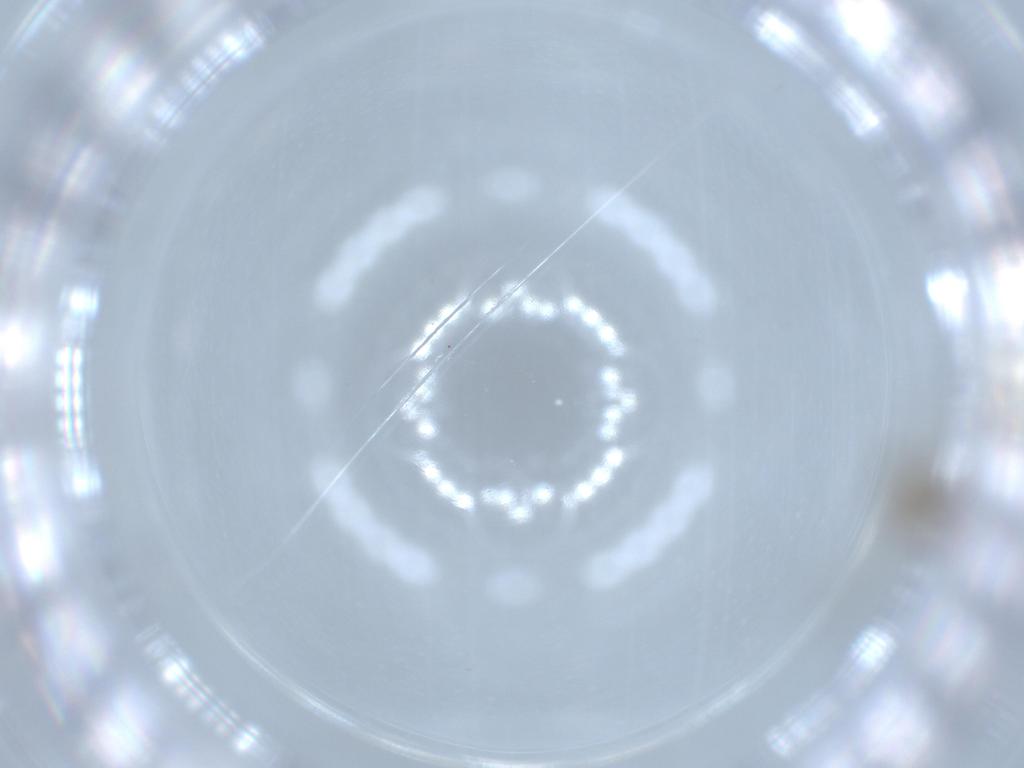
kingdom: Animalia
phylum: Arthropoda
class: Insecta
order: Diptera
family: Chironomidae
